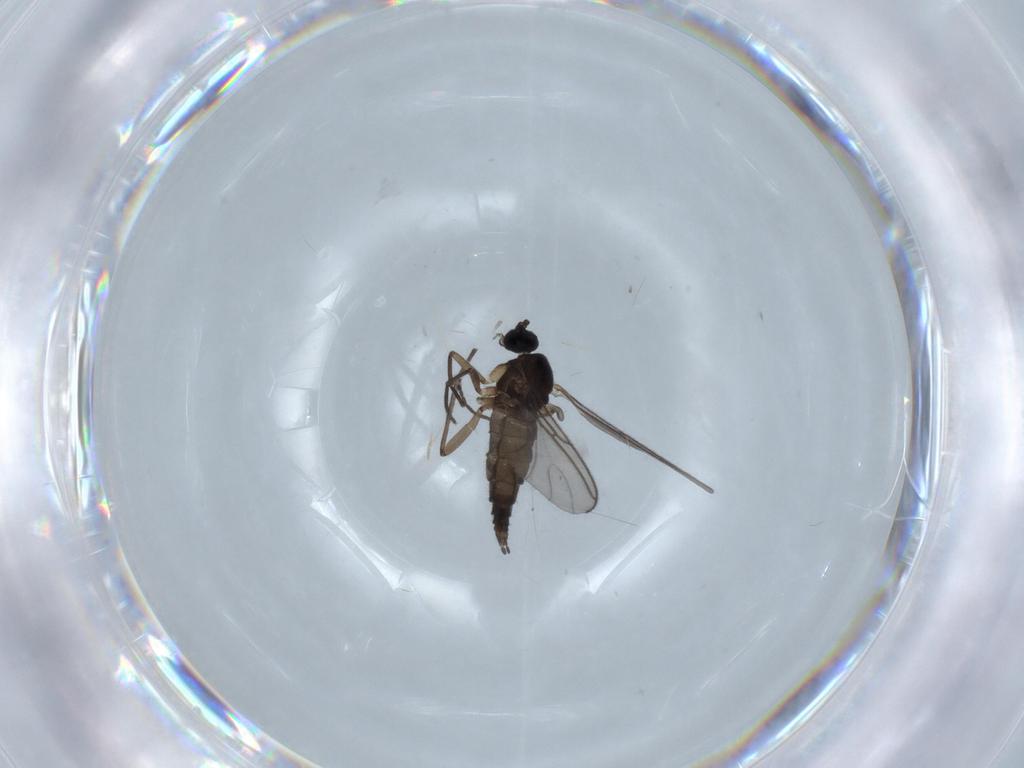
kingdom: Animalia
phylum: Arthropoda
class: Insecta
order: Diptera
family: Sciaridae
